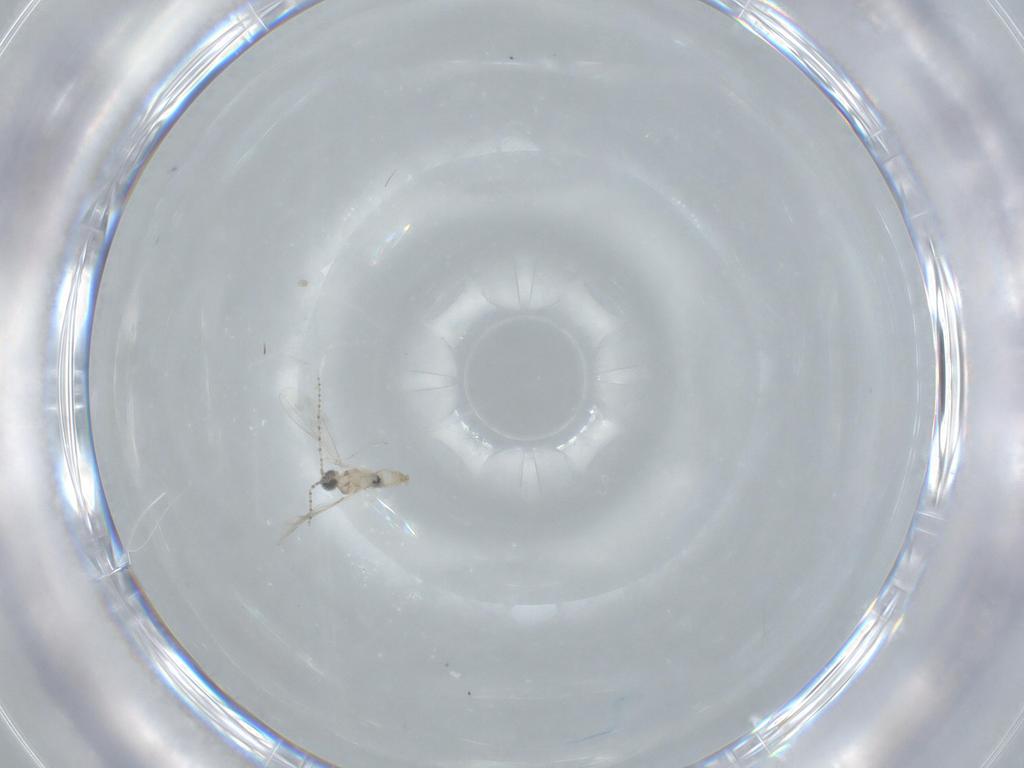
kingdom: Animalia
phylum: Arthropoda
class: Insecta
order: Diptera
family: Cecidomyiidae
